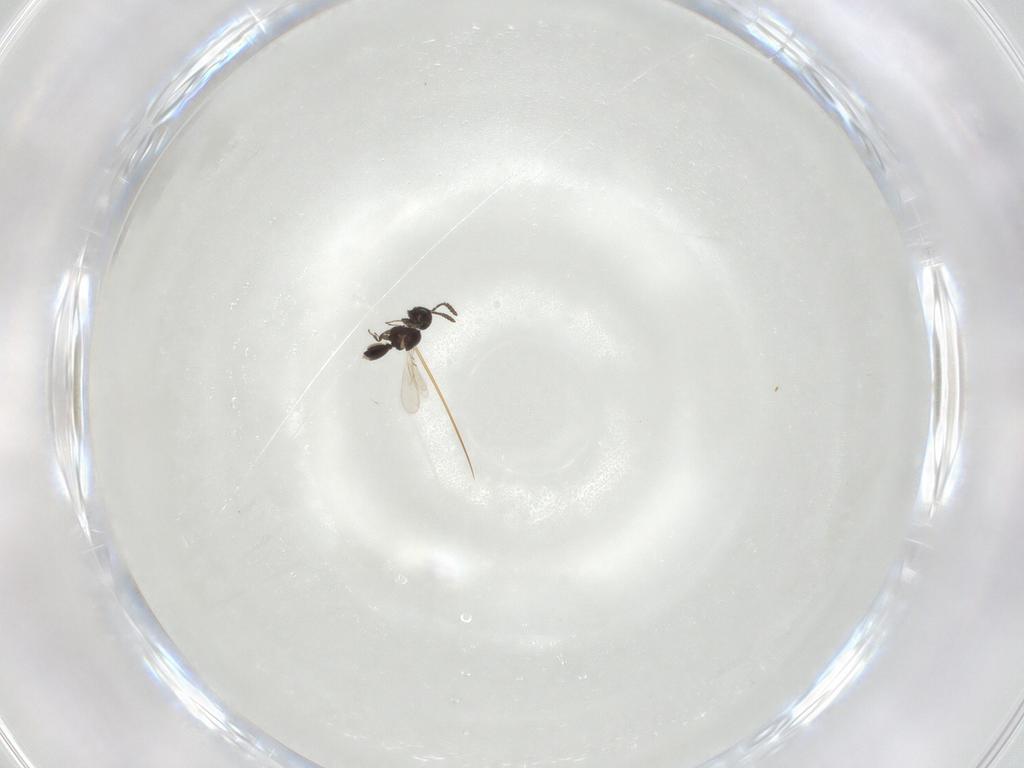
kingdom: Animalia
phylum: Arthropoda
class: Insecta
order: Hymenoptera
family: Scelionidae
